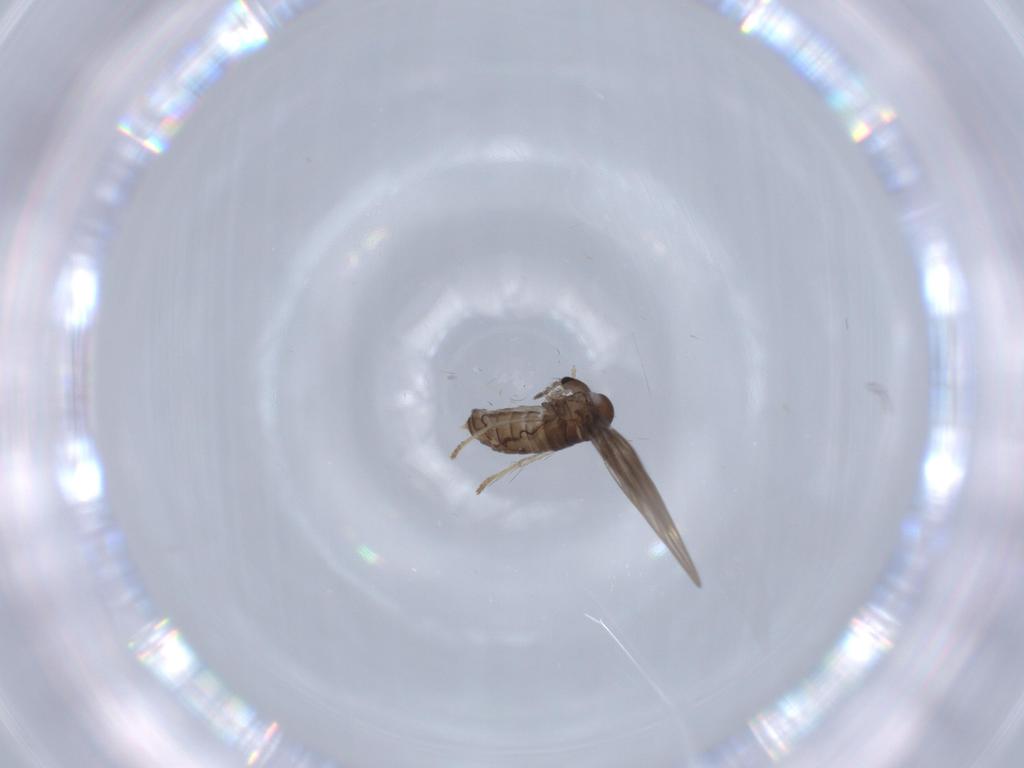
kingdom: Animalia
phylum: Arthropoda
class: Insecta
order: Diptera
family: Psychodidae
